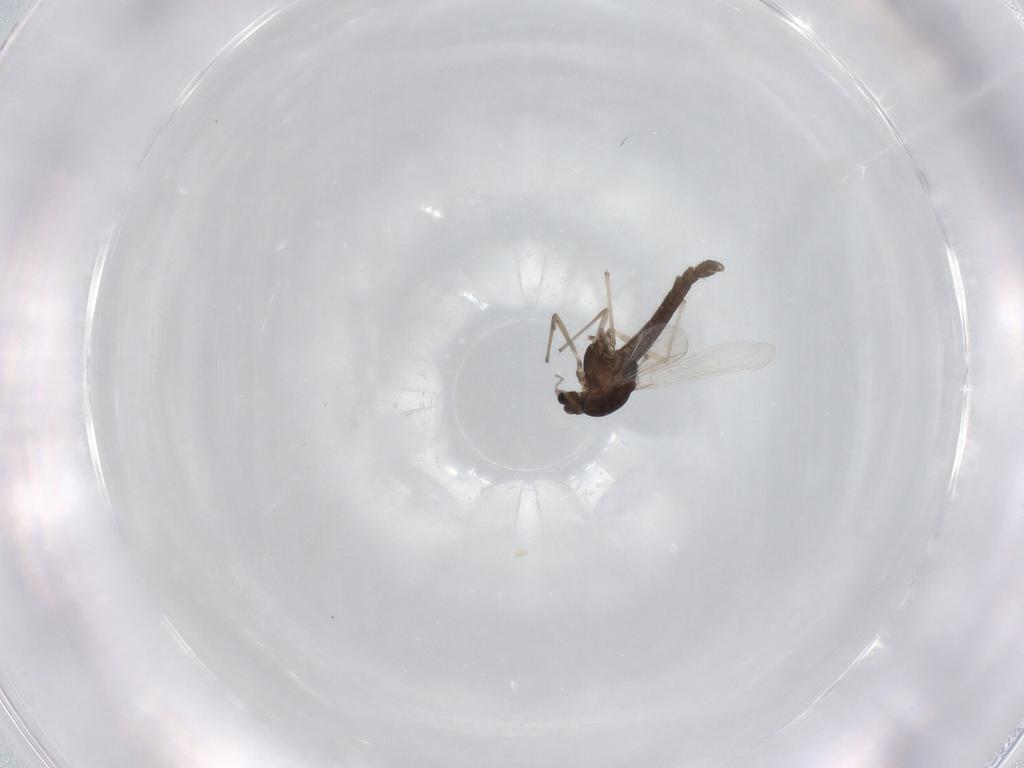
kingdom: Animalia
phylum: Arthropoda
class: Insecta
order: Diptera
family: Chironomidae
